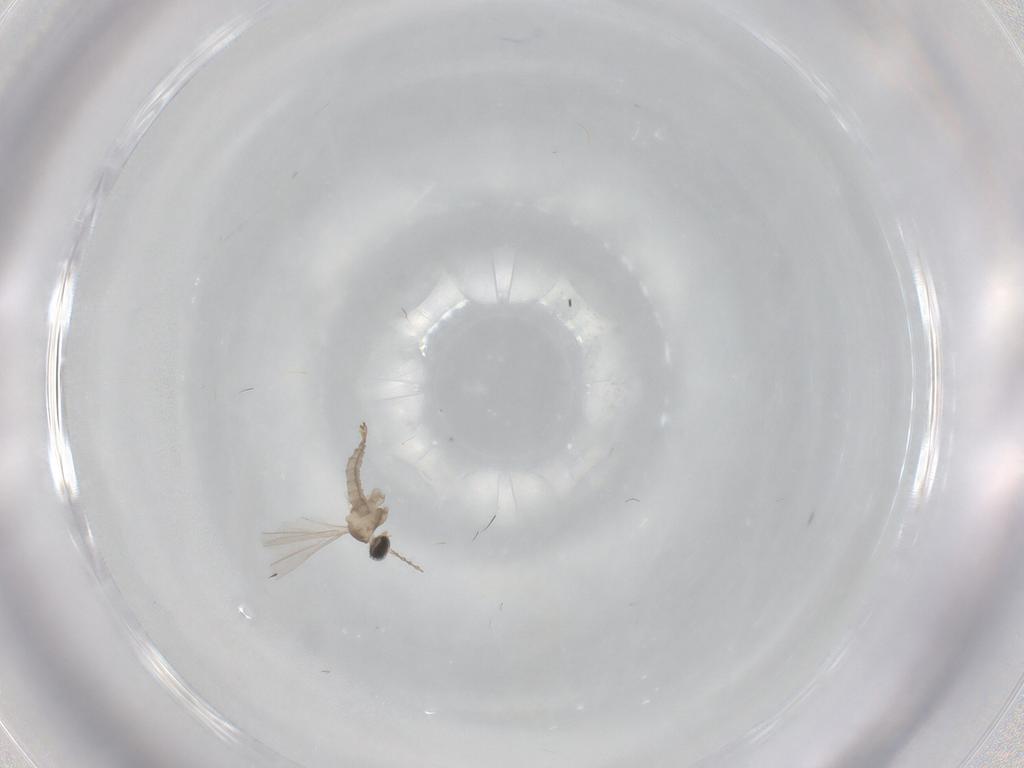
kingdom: Animalia
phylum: Arthropoda
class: Insecta
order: Diptera
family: Cecidomyiidae
